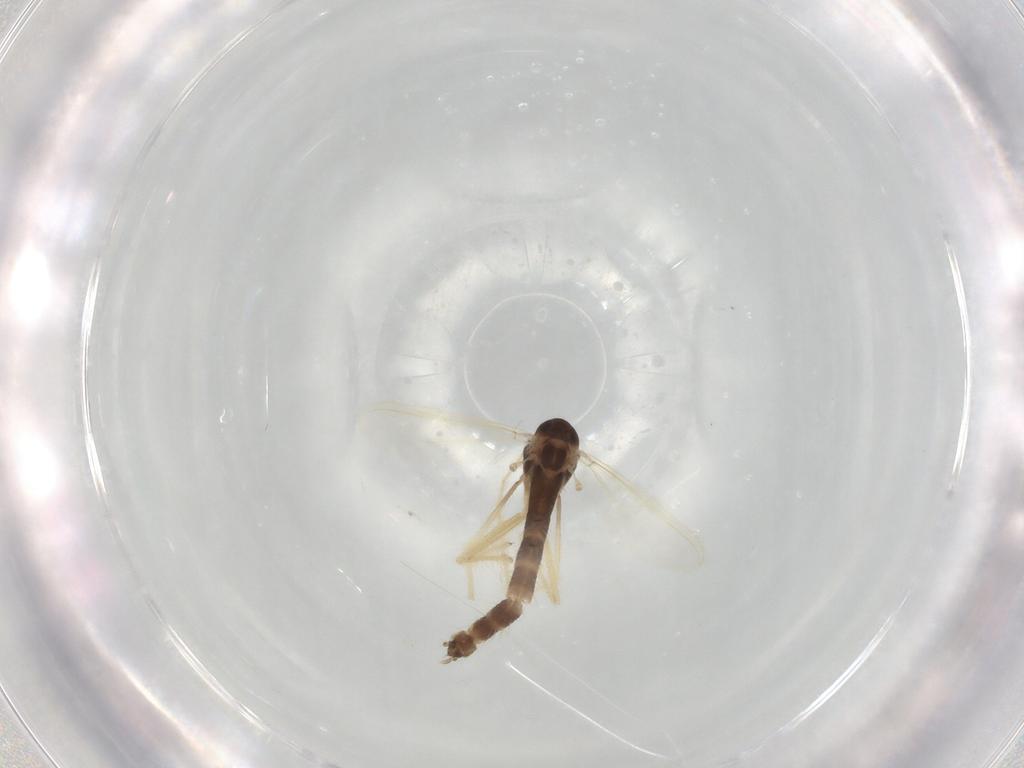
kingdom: Animalia
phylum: Arthropoda
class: Insecta
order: Diptera
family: Chironomidae
